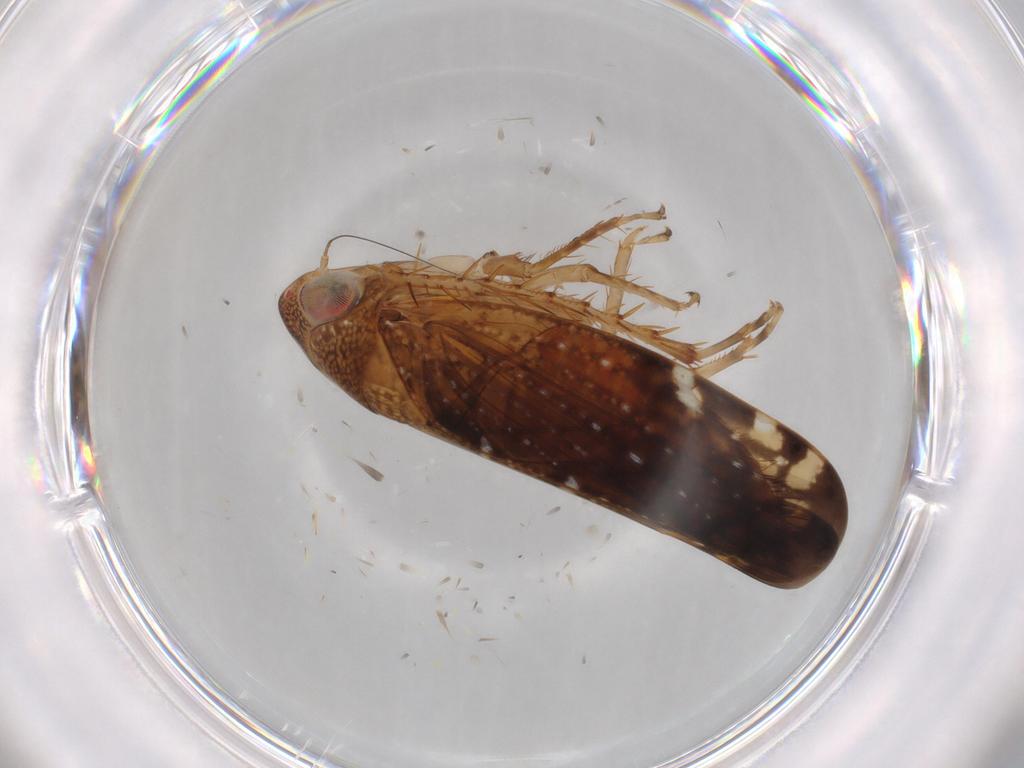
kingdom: Animalia
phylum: Arthropoda
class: Insecta
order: Hemiptera
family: Cicadellidae
